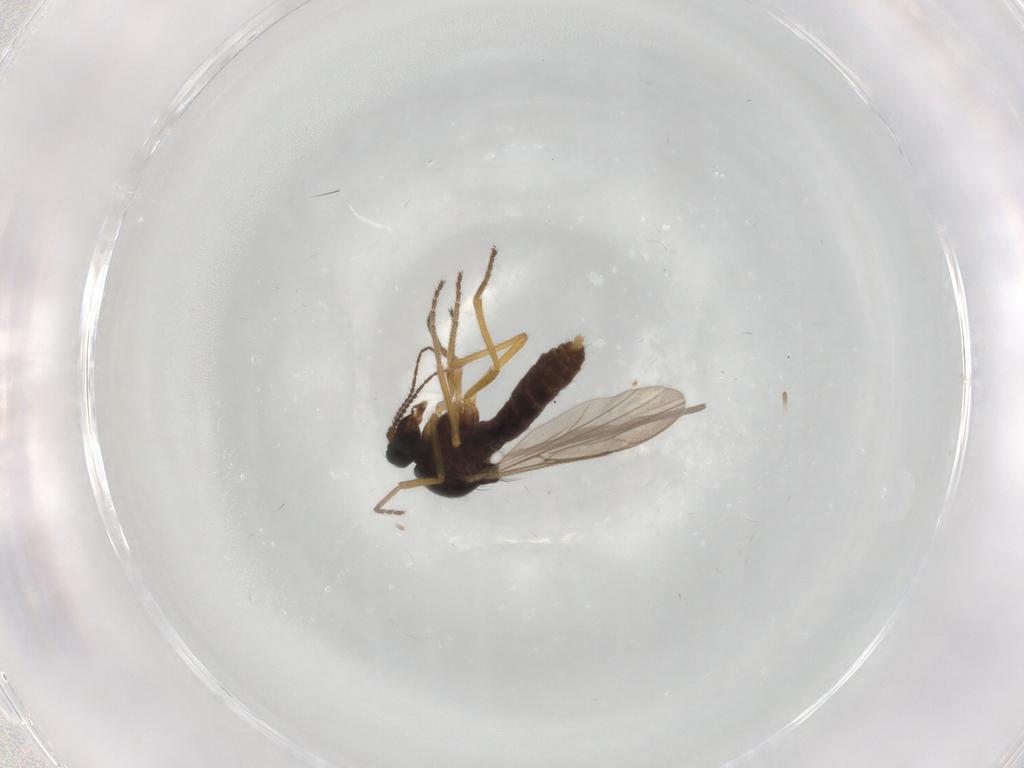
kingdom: Animalia
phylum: Arthropoda
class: Insecta
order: Diptera
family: Ceratopogonidae
